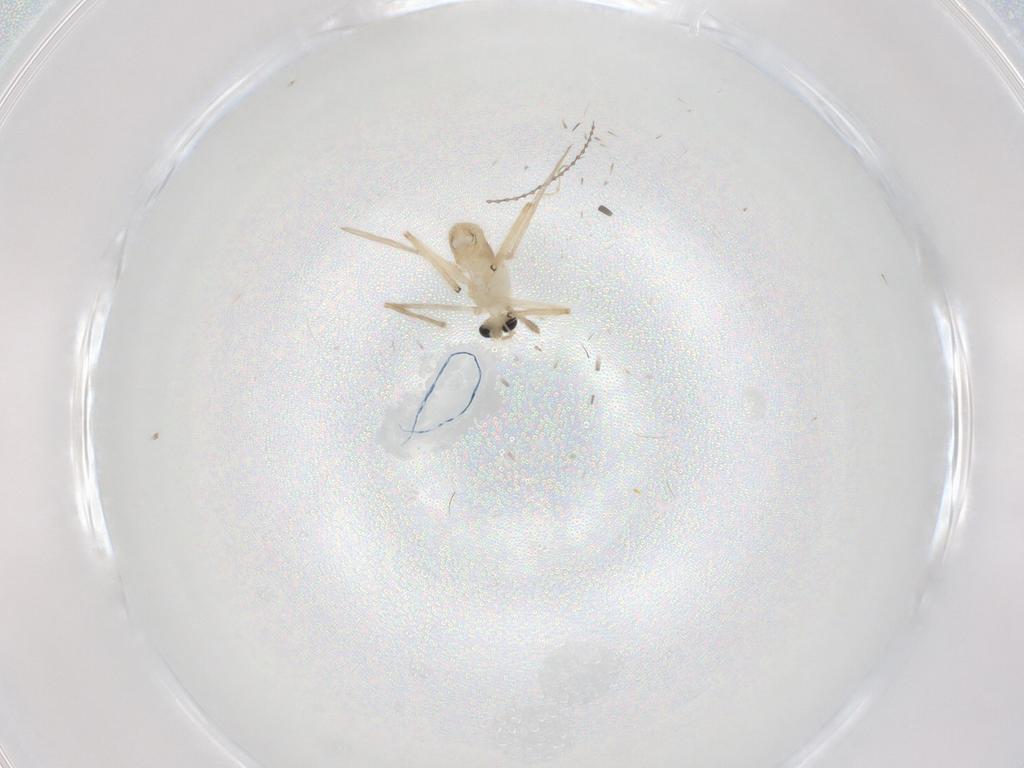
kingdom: Animalia
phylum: Arthropoda
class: Insecta
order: Diptera
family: Chironomidae
